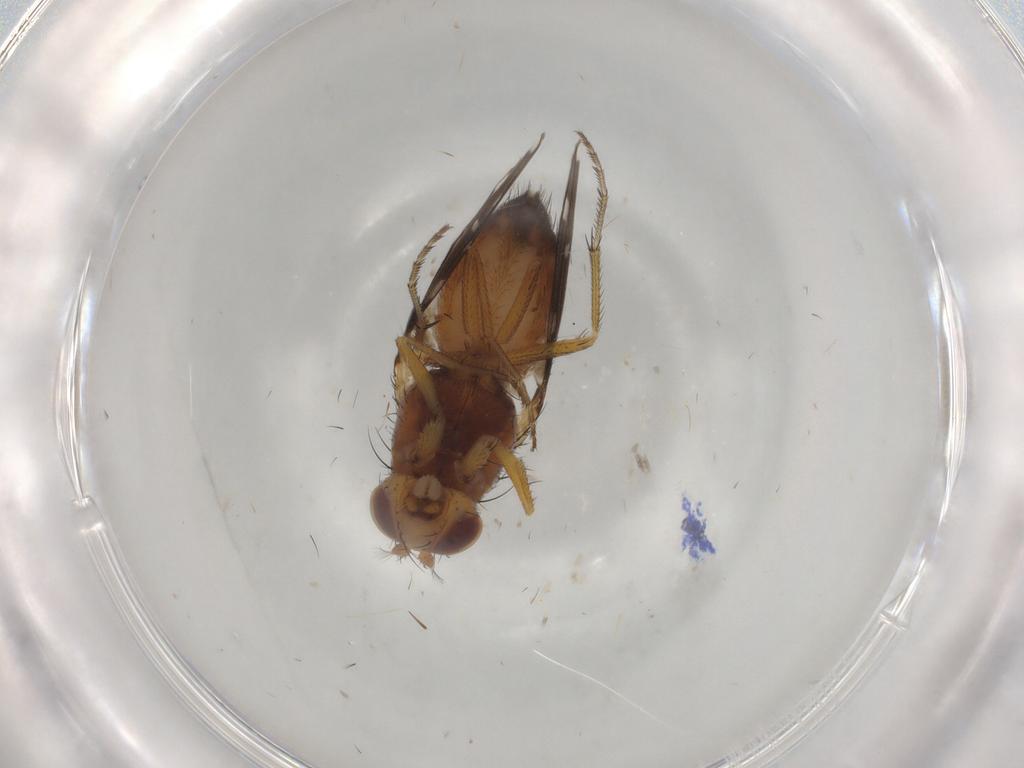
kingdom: Animalia
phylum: Arthropoda
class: Insecta
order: Diptera
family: Ephydridae
